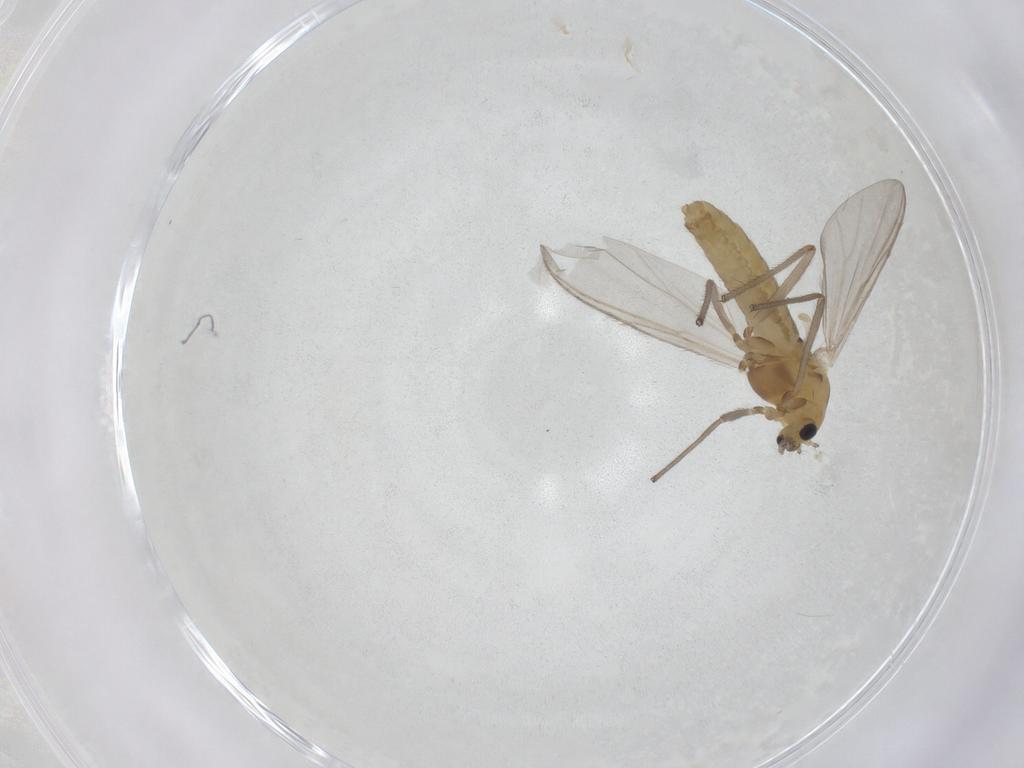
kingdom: Animalia
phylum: Arthropoda
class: Insecta
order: Diptera
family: Chironomidae
